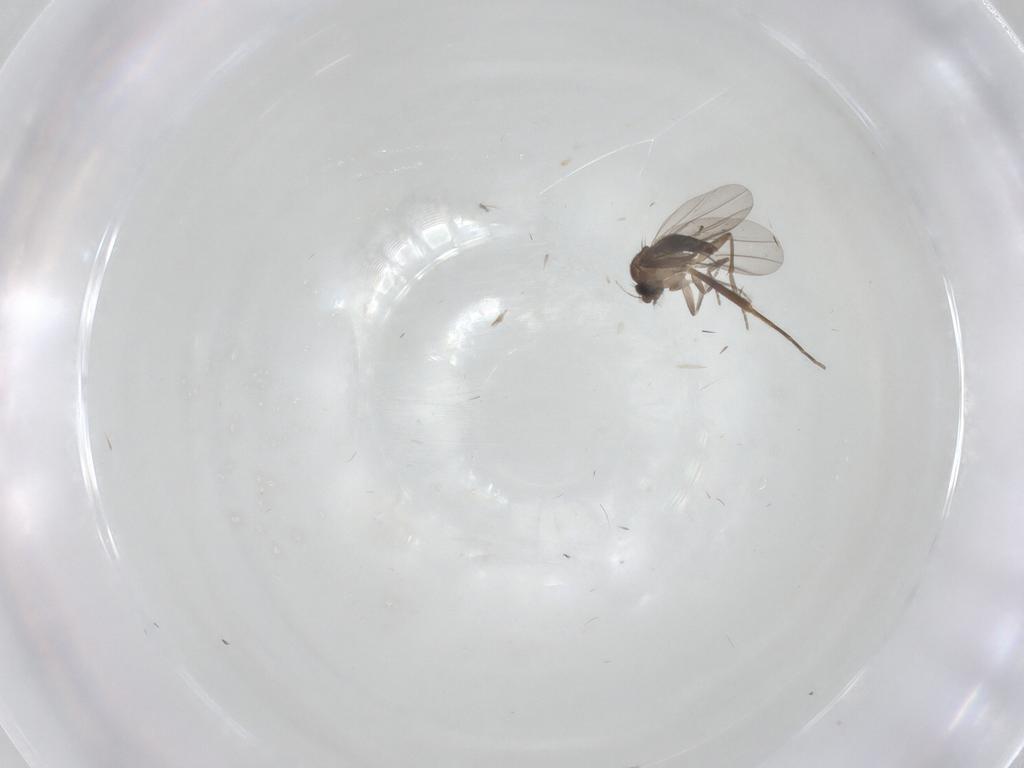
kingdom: Animalia
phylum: Arthropoda
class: Insecta
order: Diptera
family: Chironomidae
